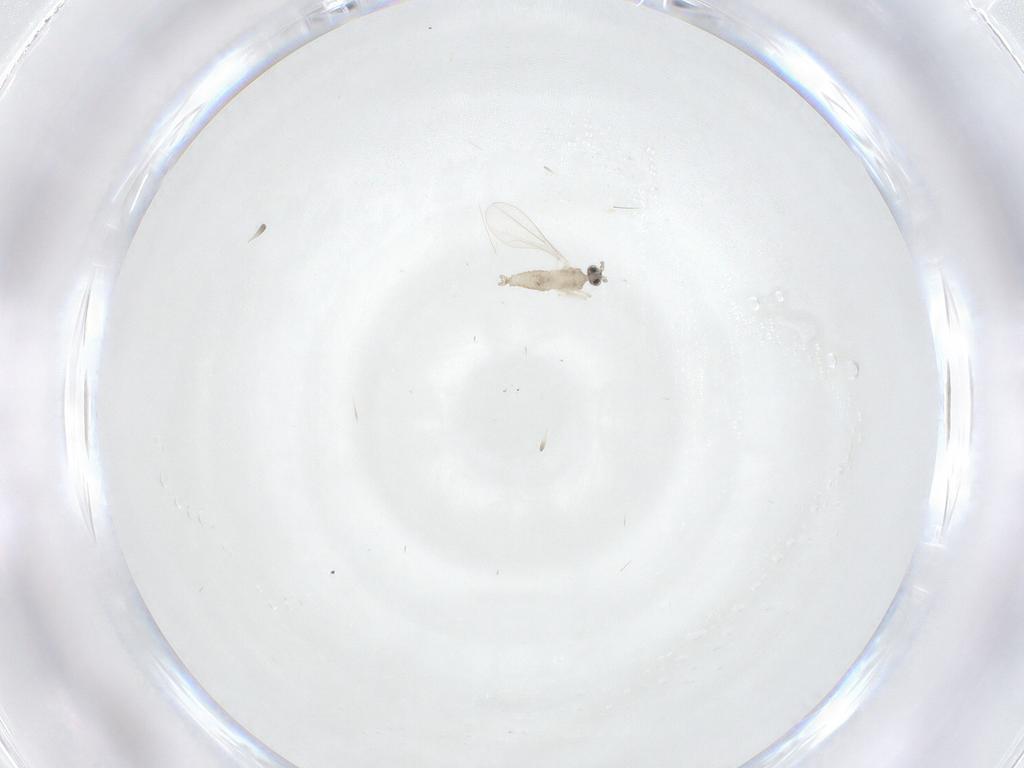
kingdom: Animalia
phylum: Arthropoda
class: Insecta
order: Diptera
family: Cecidomyiidae
